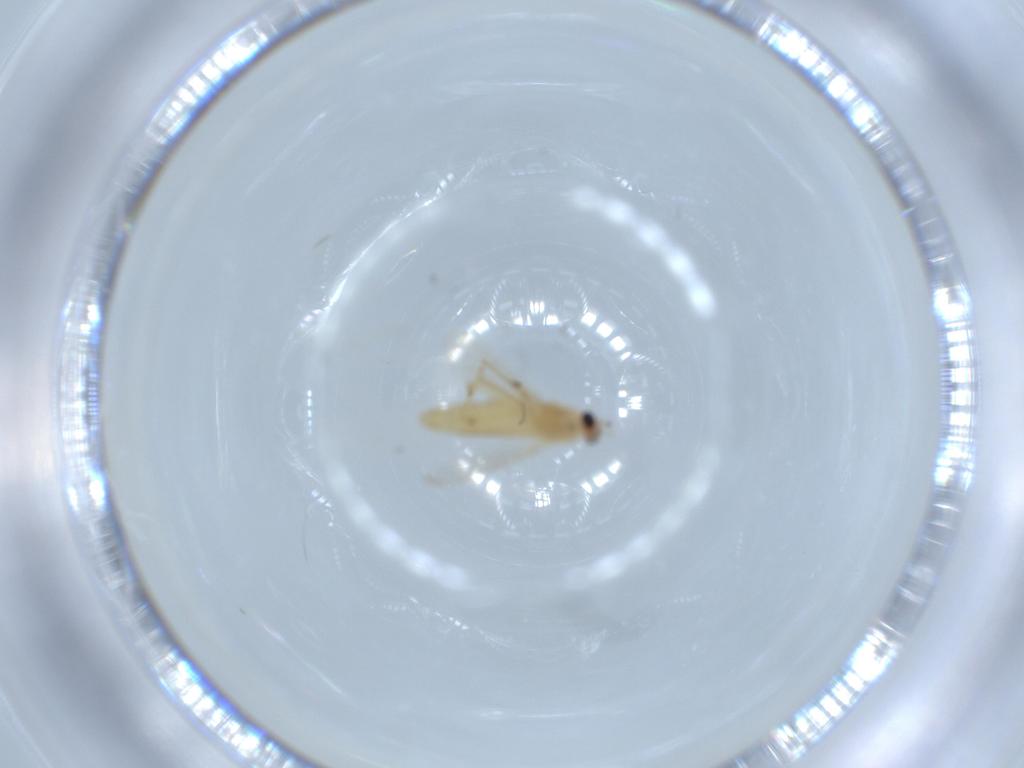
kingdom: Animalia
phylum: Arthropoda
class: Insecta
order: Diptera
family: Chironomidae
